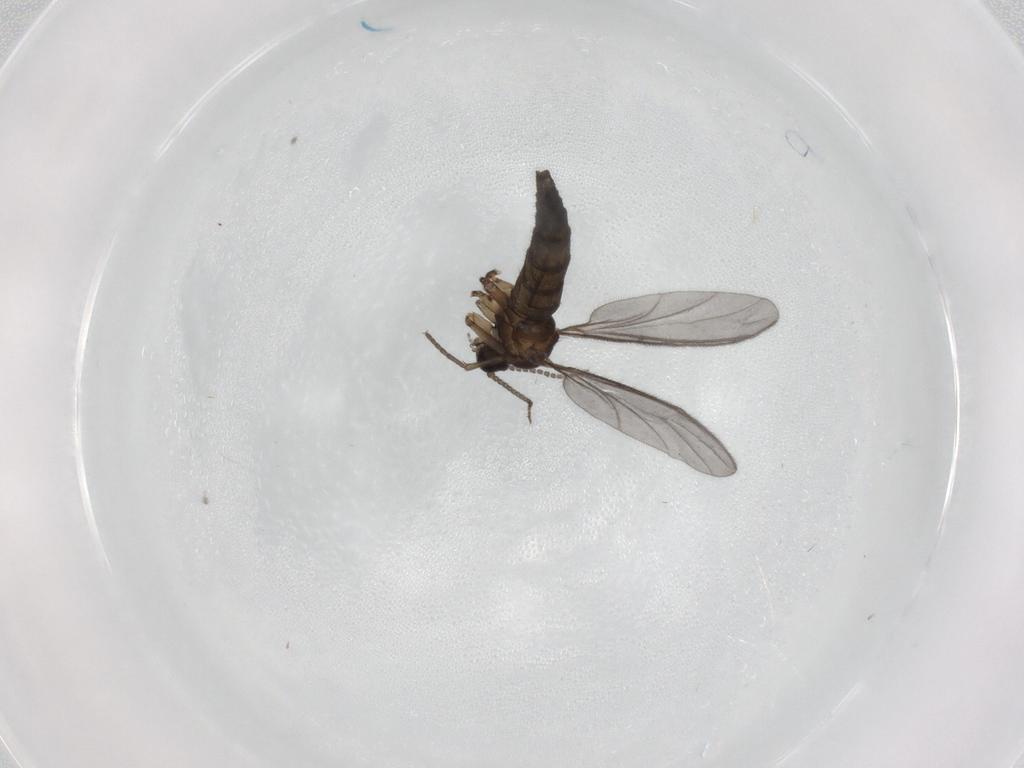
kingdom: Animalia
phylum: Arthropoda
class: Insecta
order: Diptera
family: Sciaridae
